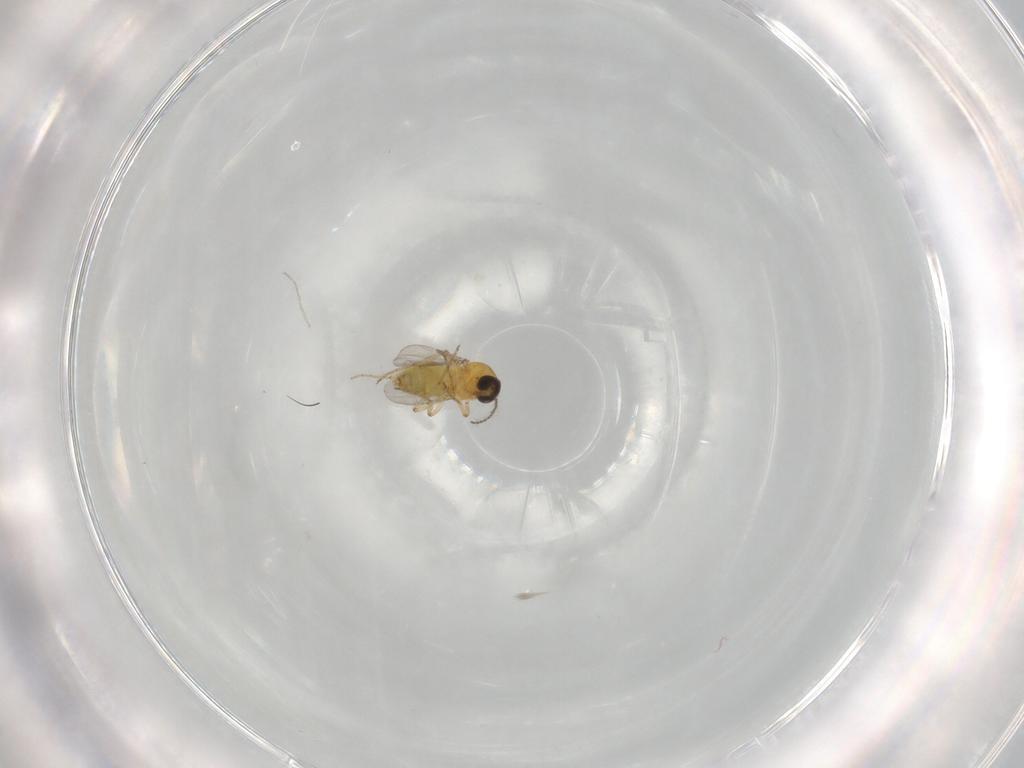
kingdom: Animalia
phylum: Arthropoda
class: Insecta
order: Diptera
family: Ceratopogonidae
